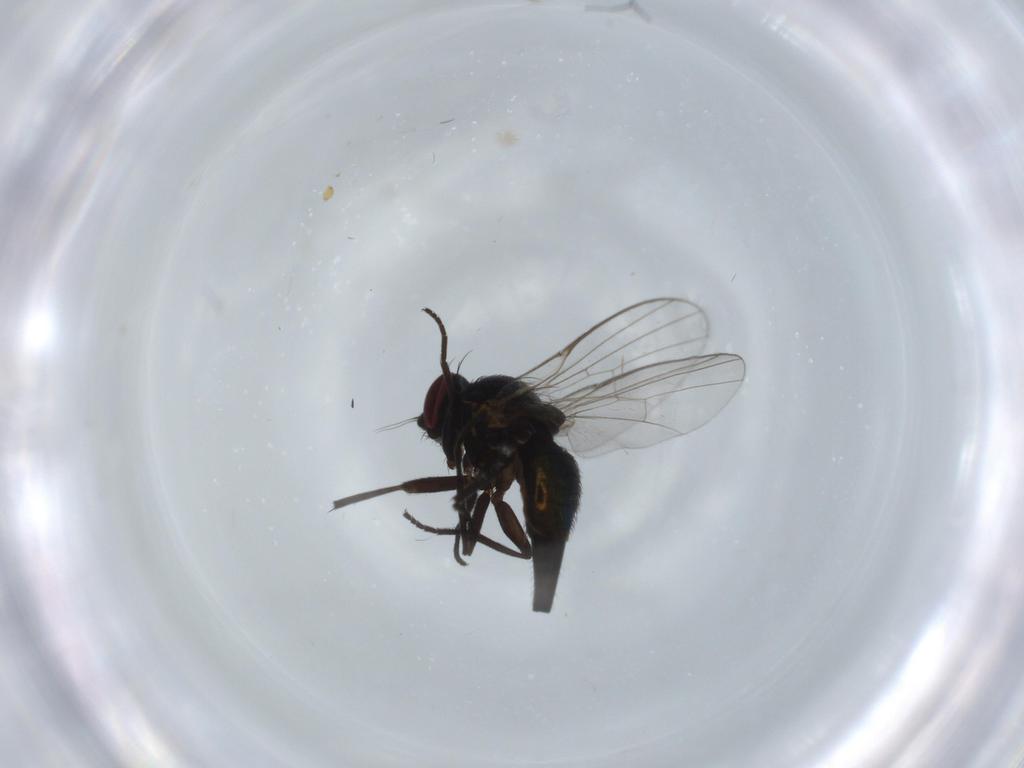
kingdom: Animalia
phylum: Arthropoda
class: Insecta
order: Diptera
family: Agromyzidae
